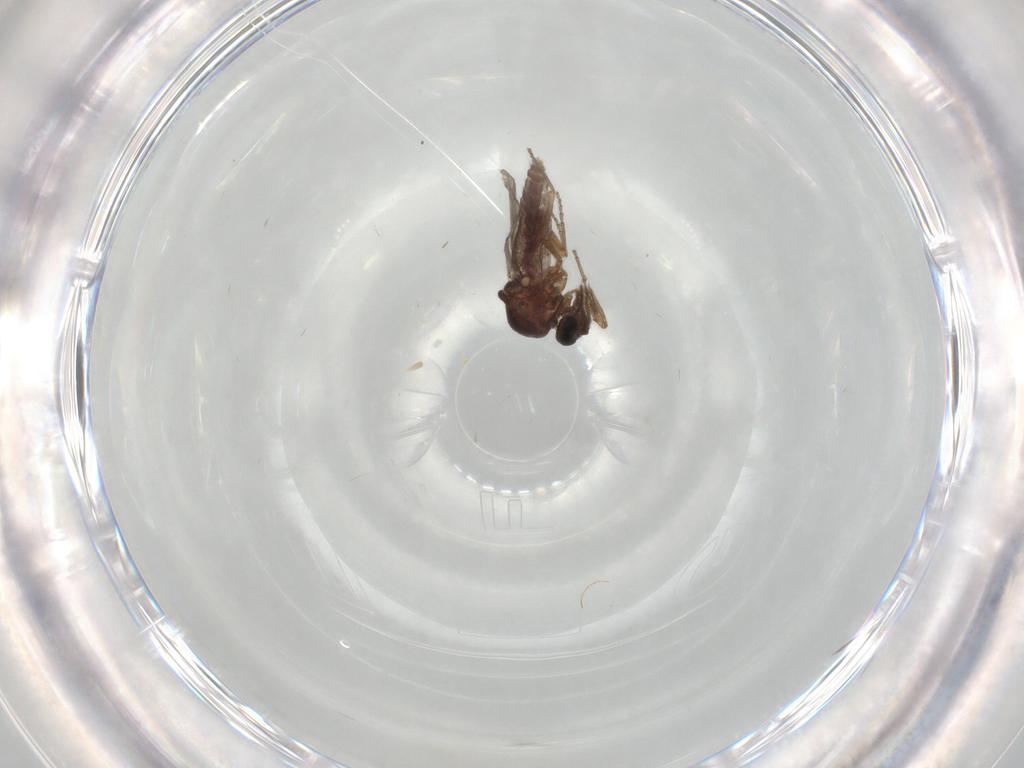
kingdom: Animalia
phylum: Arthropoda
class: Insecta
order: Diptera
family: Ceratopogonidae
